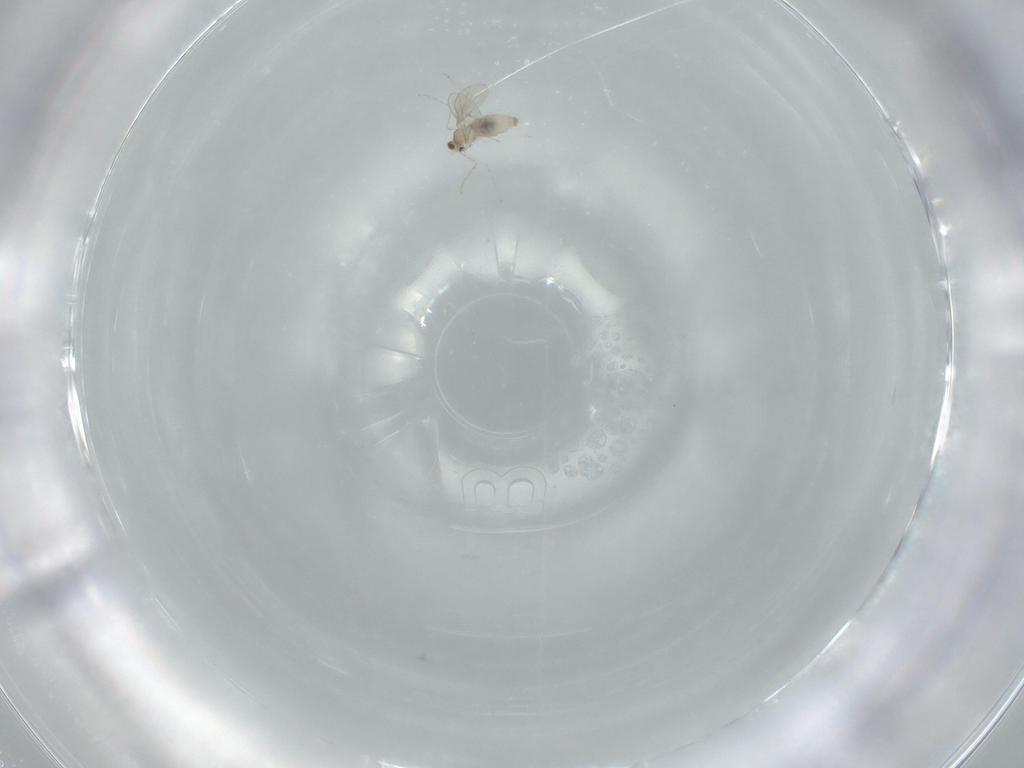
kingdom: Animalia
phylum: Arthropoda
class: Insecta
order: Diptera
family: Cecidomyiidae
